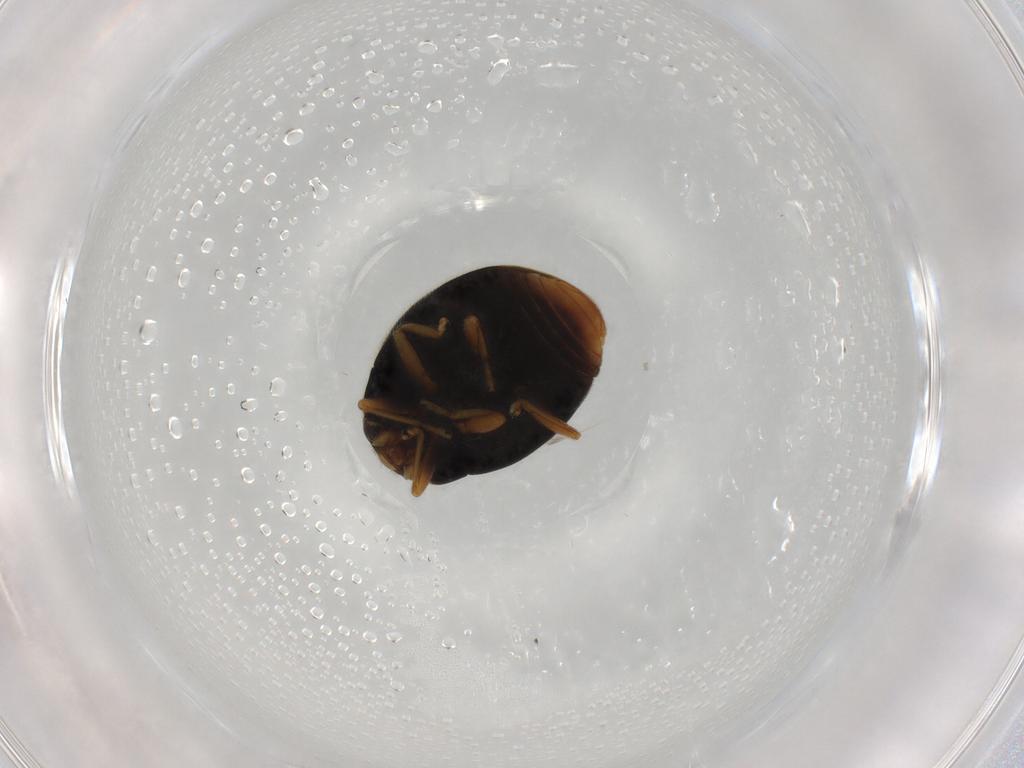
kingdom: Animalia
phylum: Arthropoda
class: Insecta
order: Coleoptera
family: Coccinellidae
